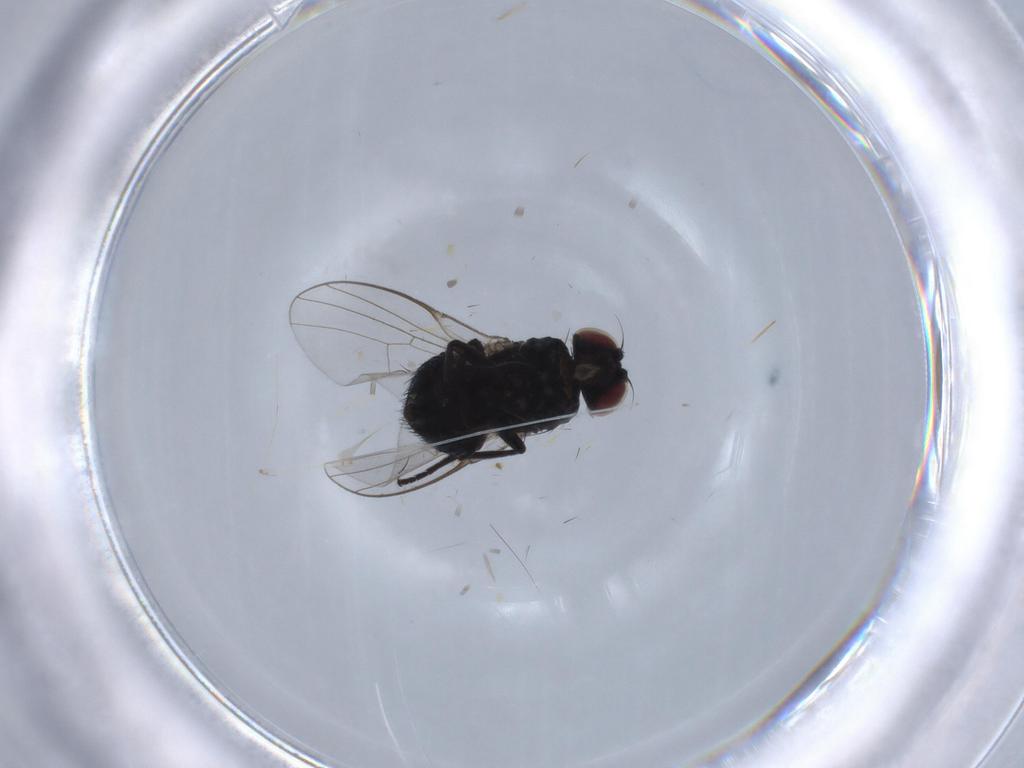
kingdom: Animalia
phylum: Arthropoda
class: Insecta
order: Diptera
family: Agromyzidae
